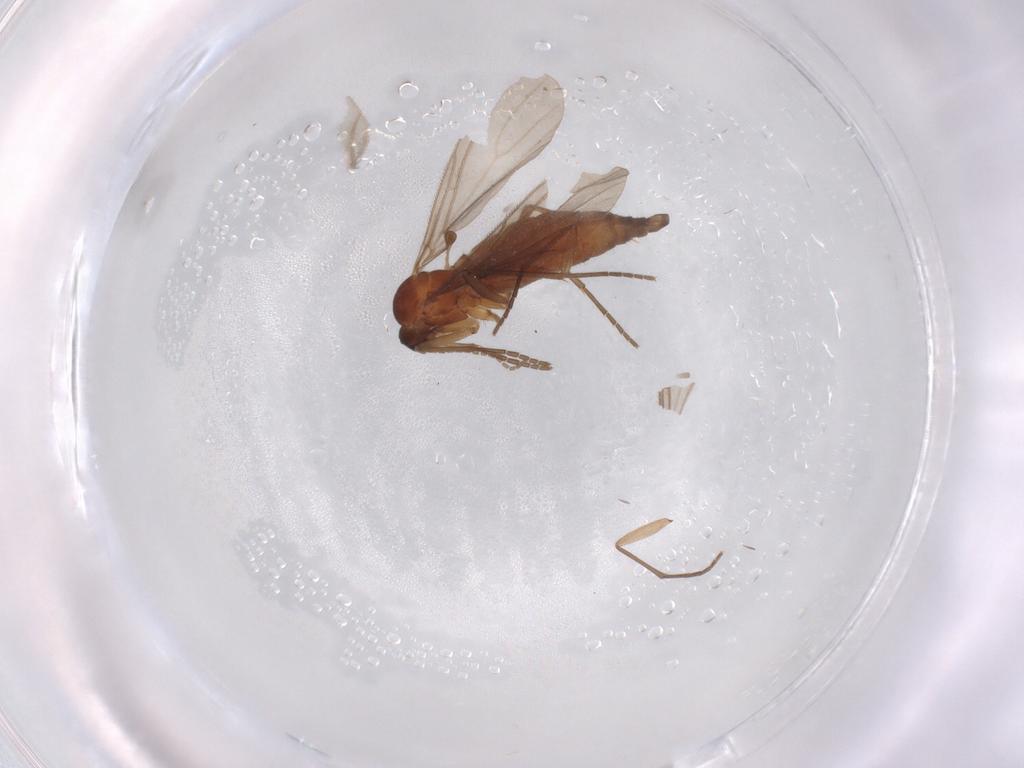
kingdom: Animalia
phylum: Arthropoda
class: Insecta
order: Diptera
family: Sciaridae
